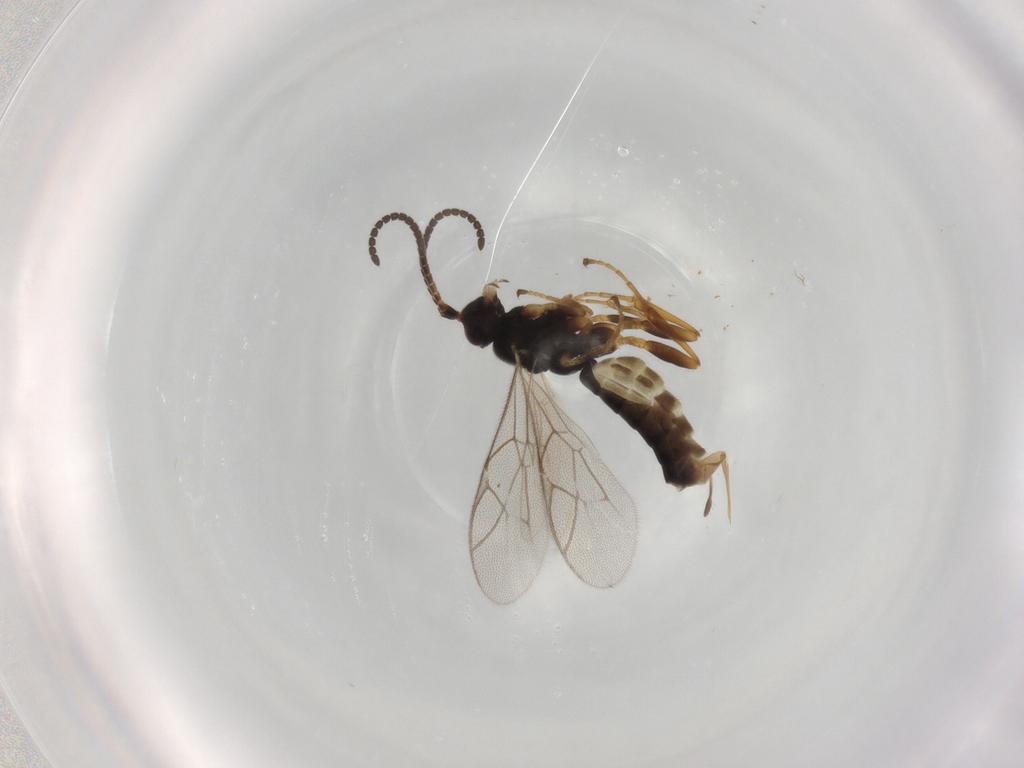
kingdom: Animalia
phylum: Arthropoda
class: Insecta
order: Hymenoptera
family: Ichneumonidae
